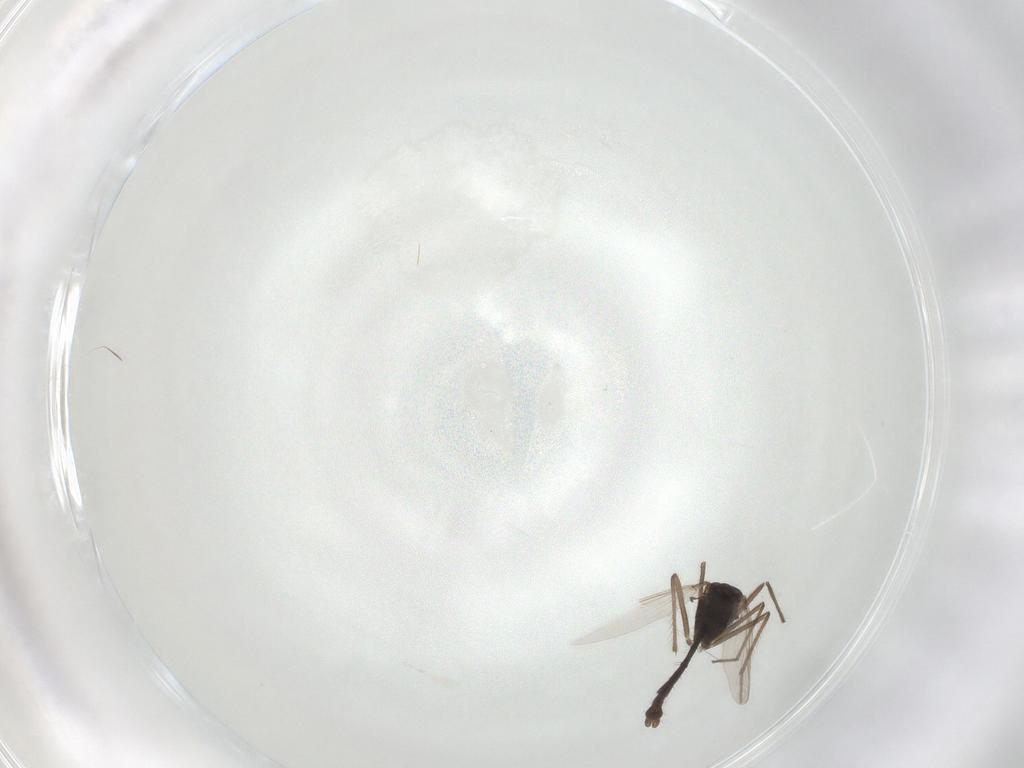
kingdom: Animalia
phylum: Arthropoda
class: Insecta
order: Diptera
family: Chironomidae
